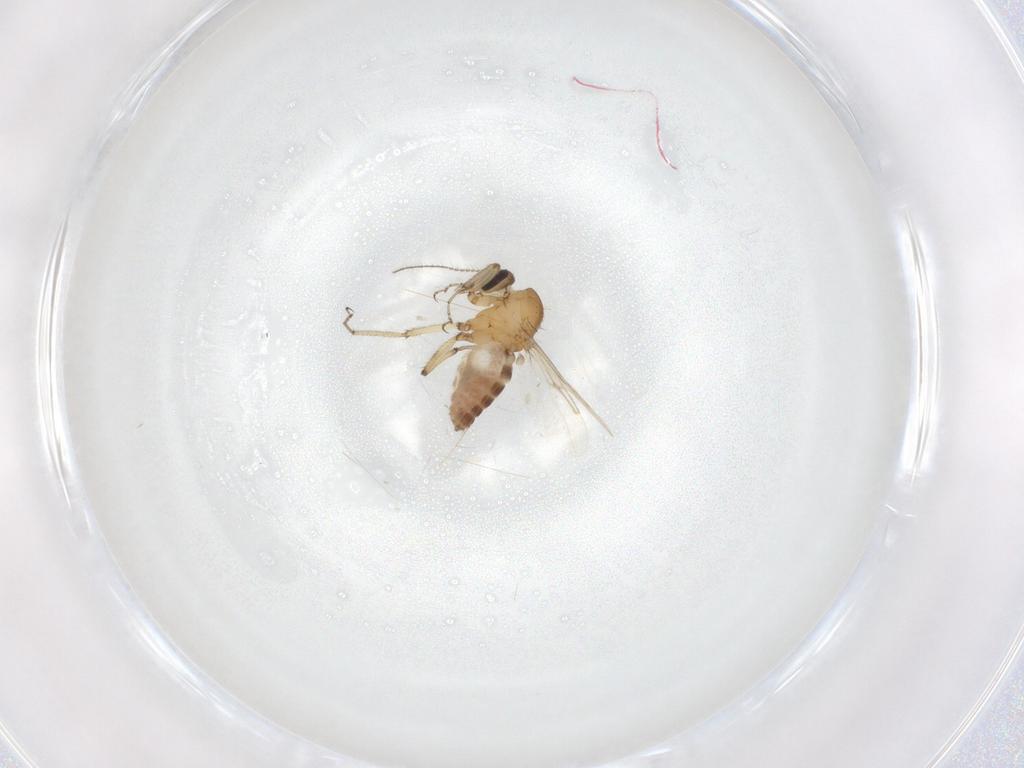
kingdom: Animalia
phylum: Arthropoda
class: Insecta
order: Diptera
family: Ceratopogonidae
